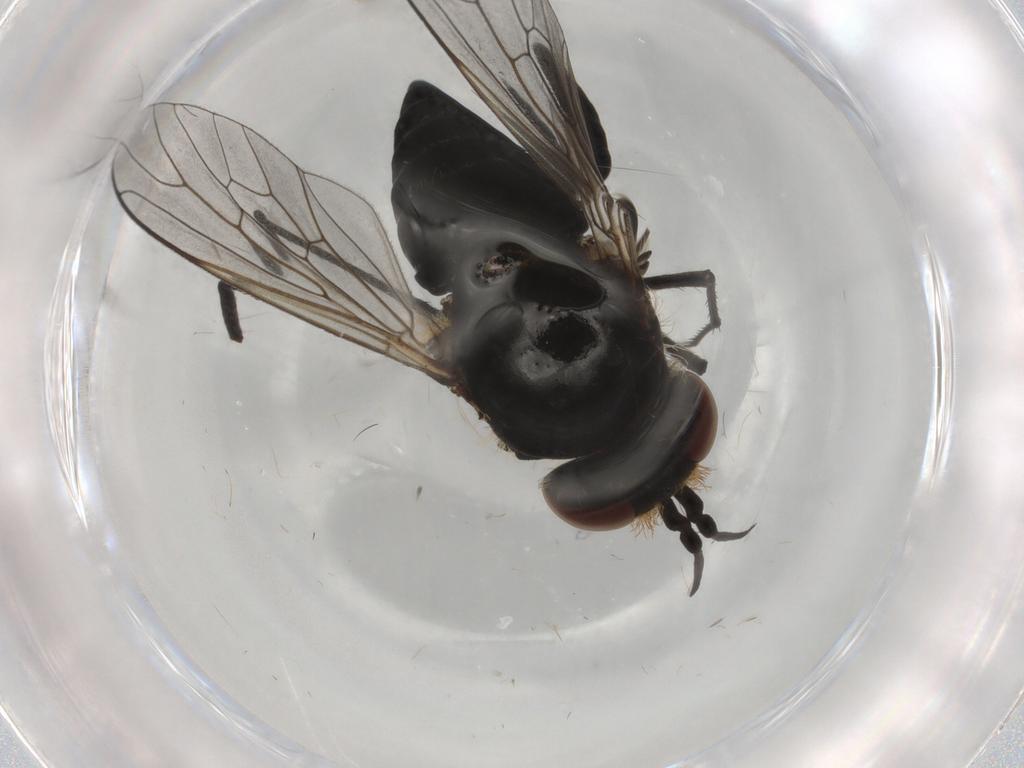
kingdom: Animalia
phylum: Arthropoda
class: Insecta
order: Diptera
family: Bombyliidae
